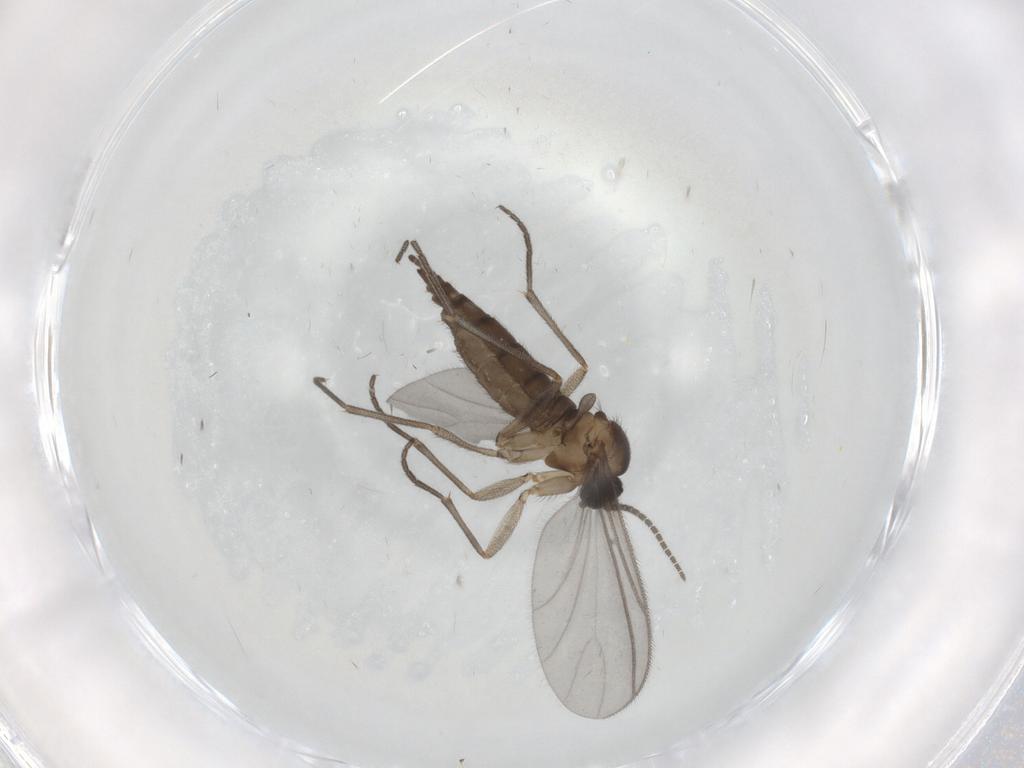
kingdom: Animalia
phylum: Arthropoda
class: Insecta
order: Diptera
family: Sciaridae
